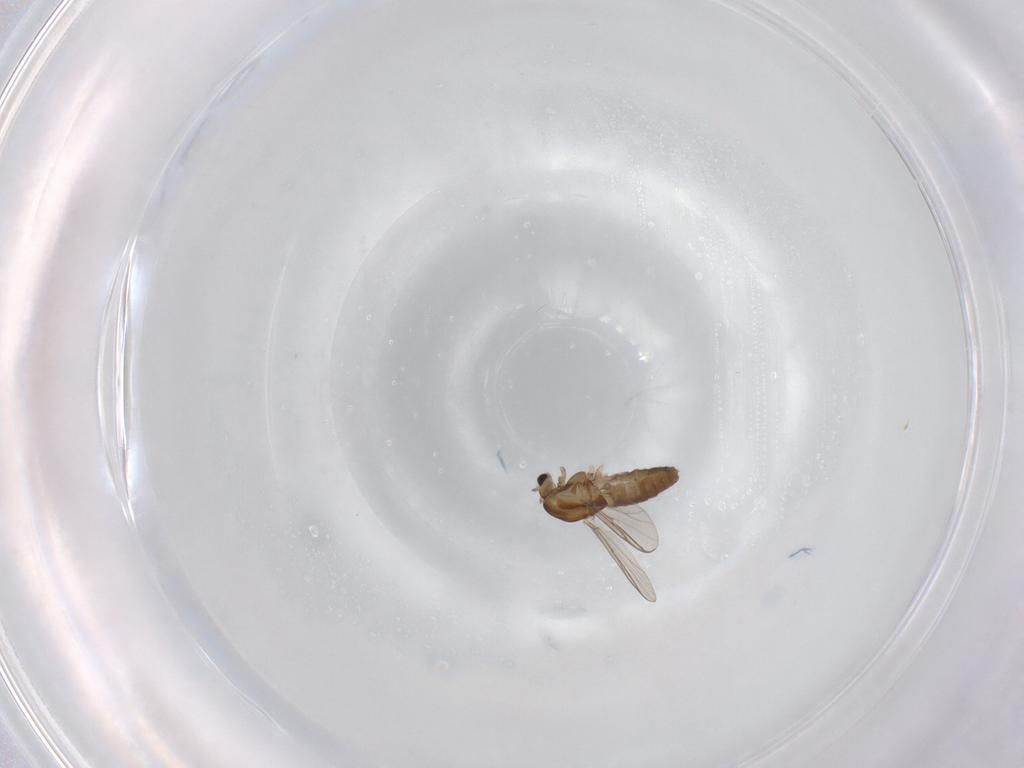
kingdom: Animalia
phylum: Arthropoda
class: Insecta
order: Diptera
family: Chironomidae
